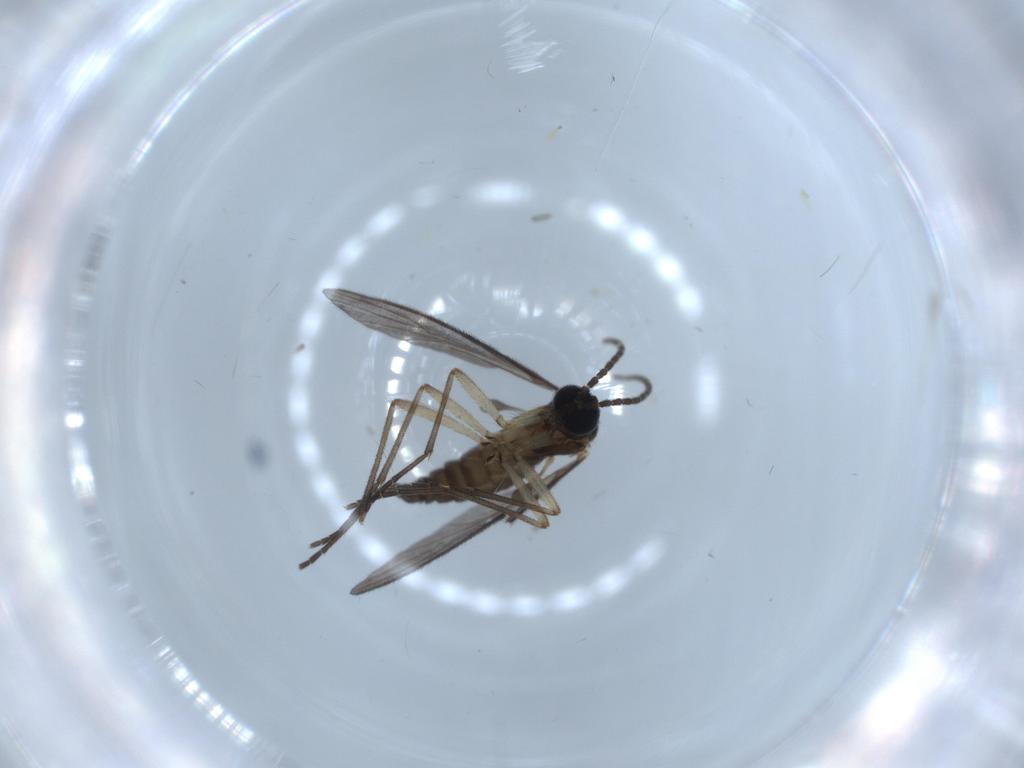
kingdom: Animalia
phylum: Arthropoda
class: Insecta
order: Diptera
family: Sciaridae
